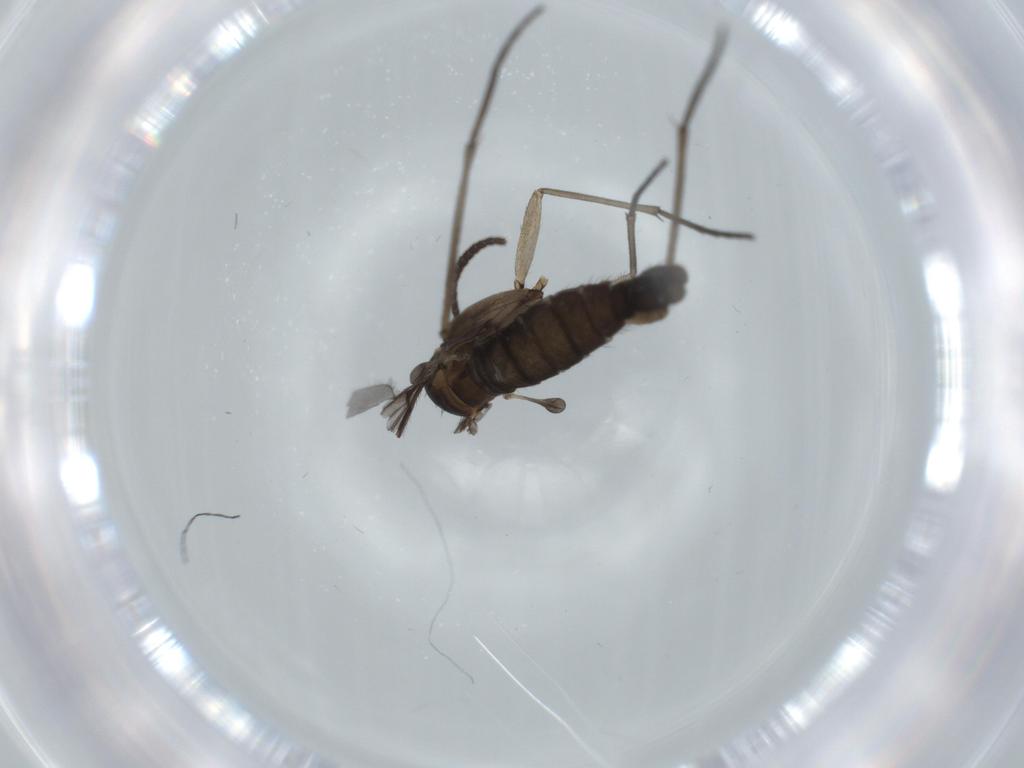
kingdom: Animalia
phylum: Arthropoda
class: Insecta
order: Diptera
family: Sciaridae
